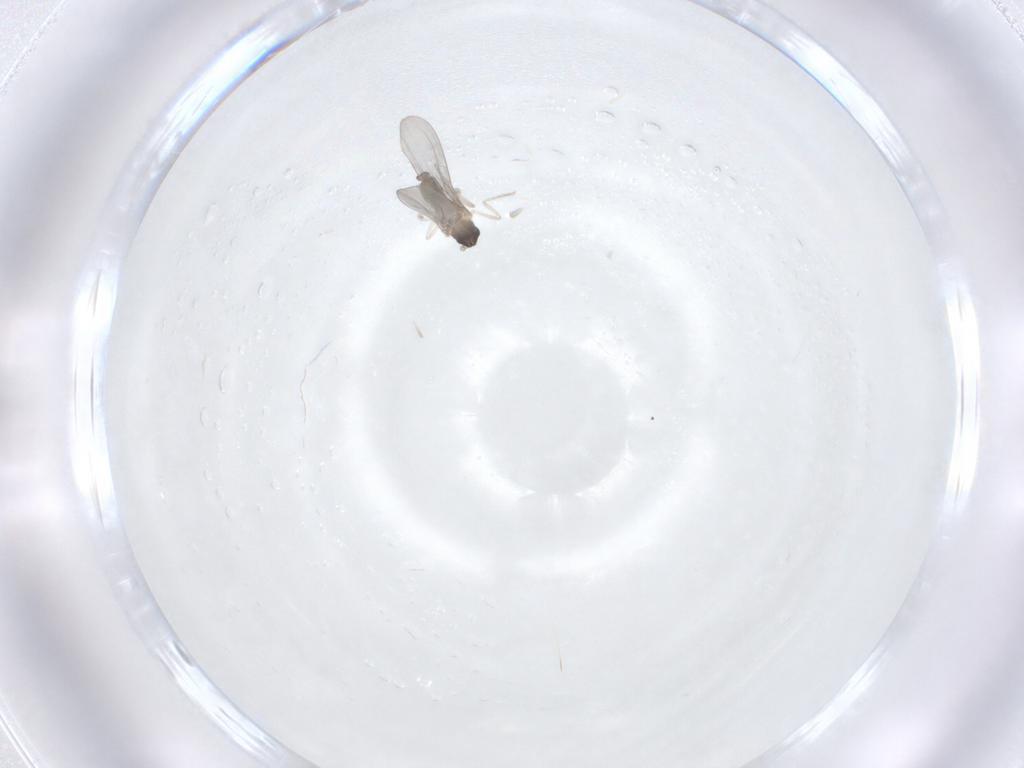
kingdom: Animalia
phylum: Arthropoda
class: Insecta
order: Diptera
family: Cecidomyiidae
